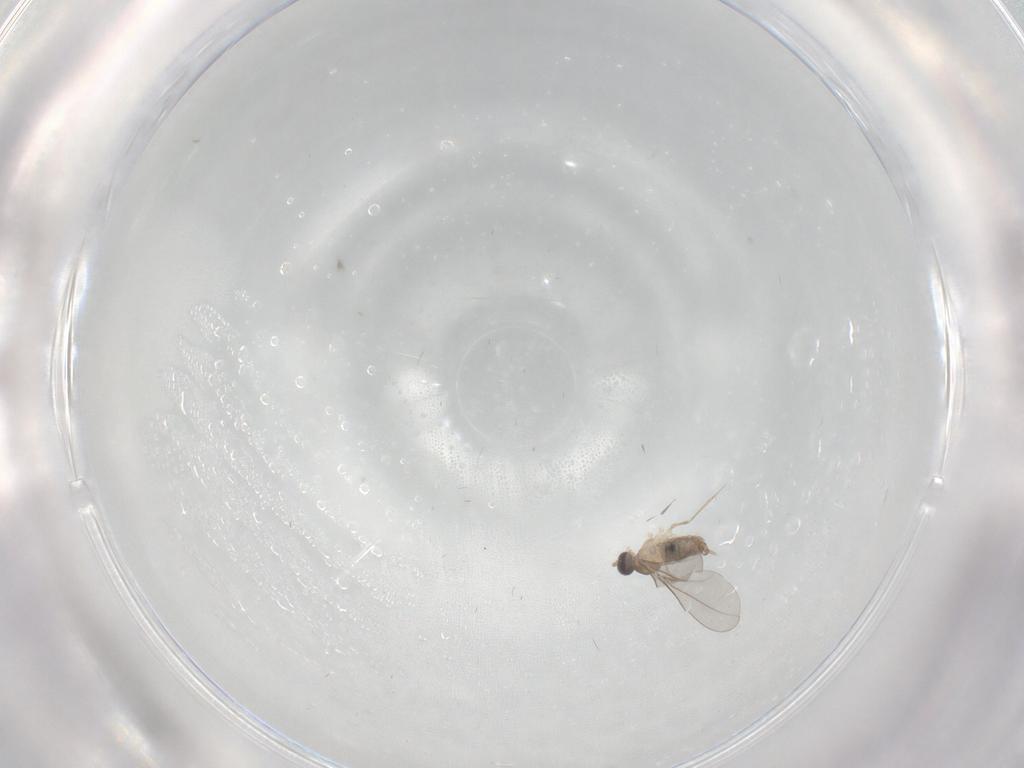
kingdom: Animalia
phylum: Arthropoda
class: Insecta
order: Diptera
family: Cecidomyiidae
